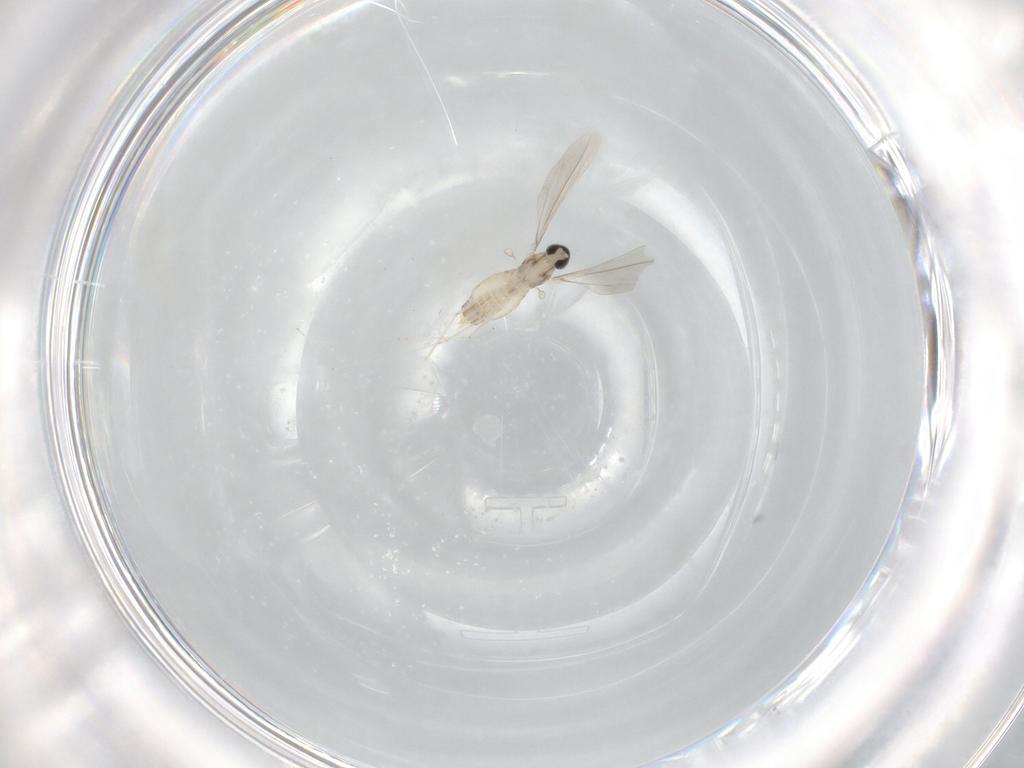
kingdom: Animalia
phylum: Arthropoda
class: Insecta
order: Diptera
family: Cecidomyiidae
